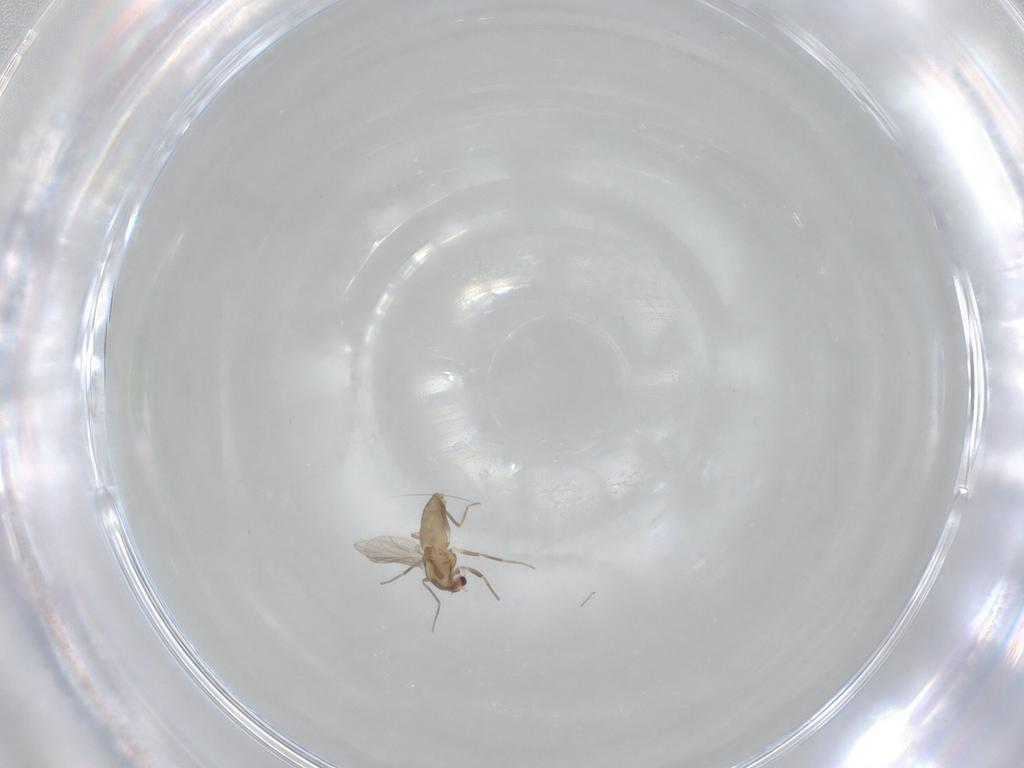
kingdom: Animalia
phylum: Arthropoda
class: Insecta
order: Diptera
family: Chironomidae
